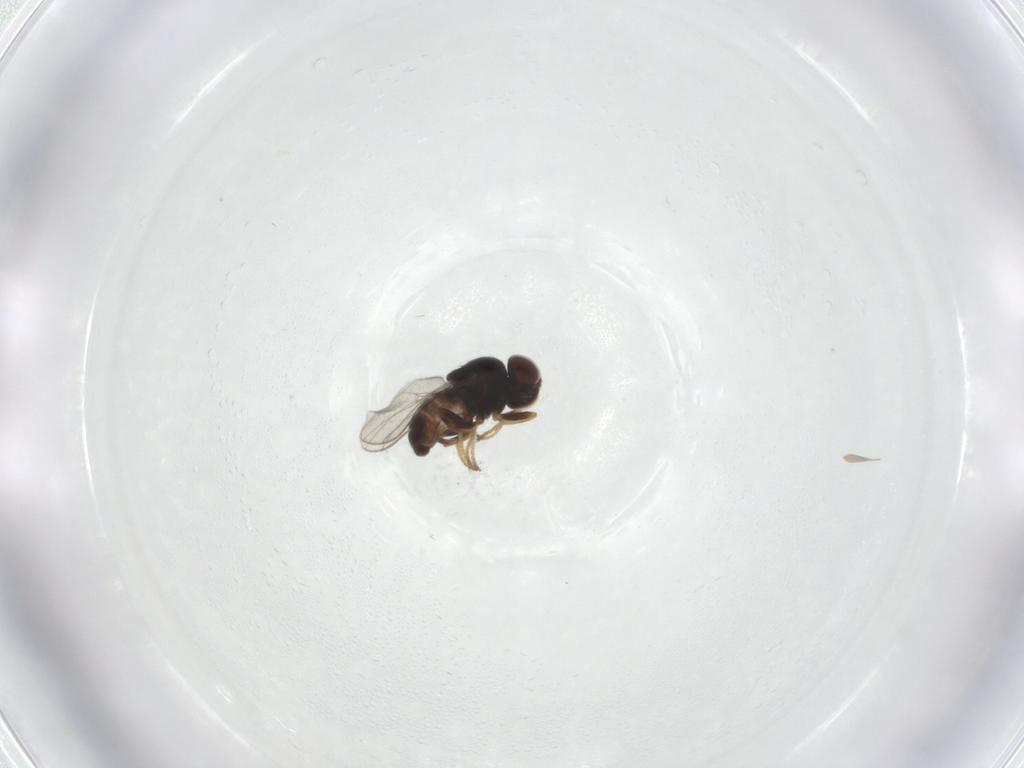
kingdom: Animalia
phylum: Arthropoda
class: Insecta
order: Diptera
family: Chloropidae
